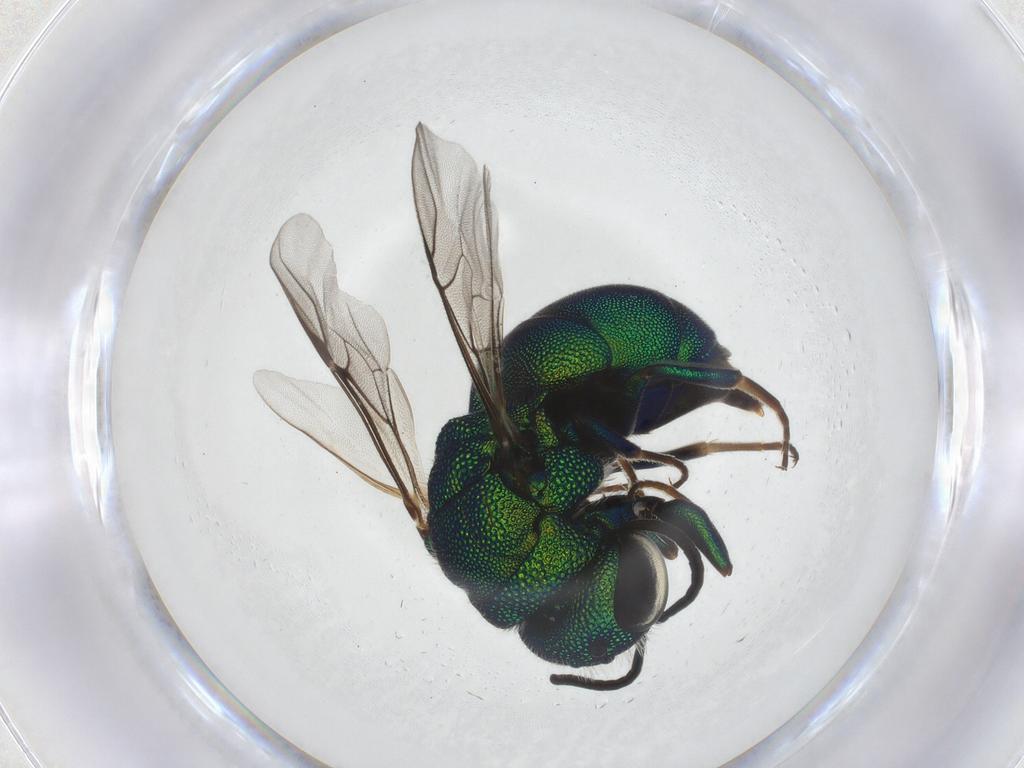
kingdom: Animalia
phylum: Arthropoda
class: Insecta
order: Hymenoptera
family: Chrysididae
